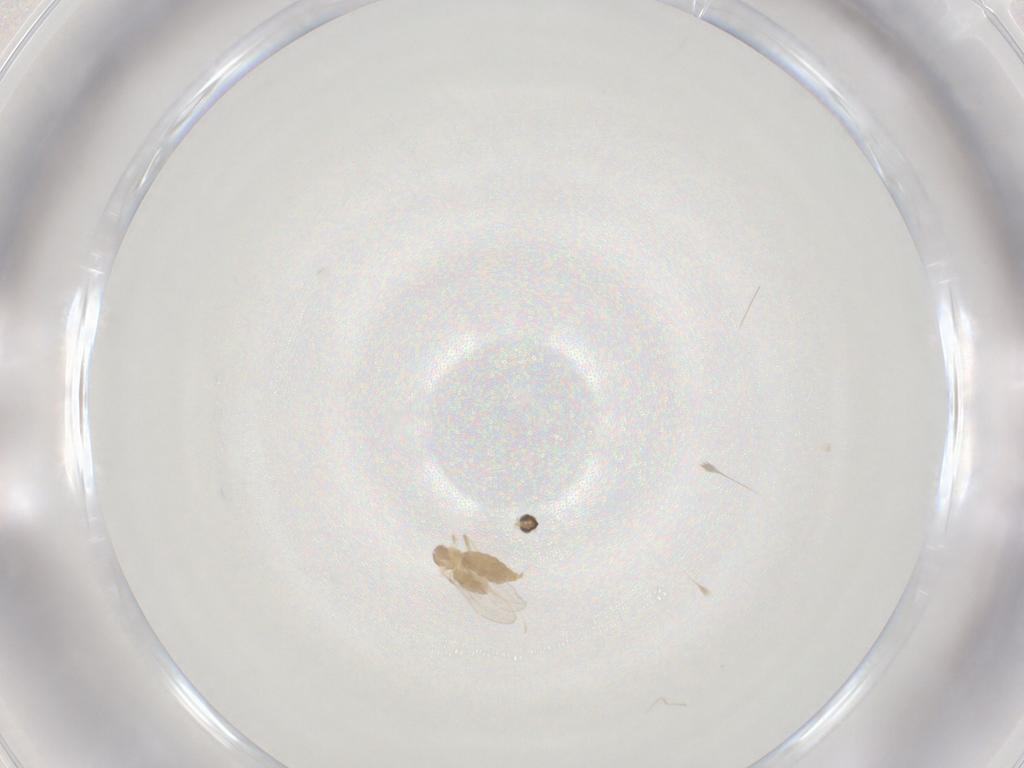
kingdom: Animalia
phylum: Arthropoda
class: Insecta
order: Diptera
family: Cecidomyiidae
